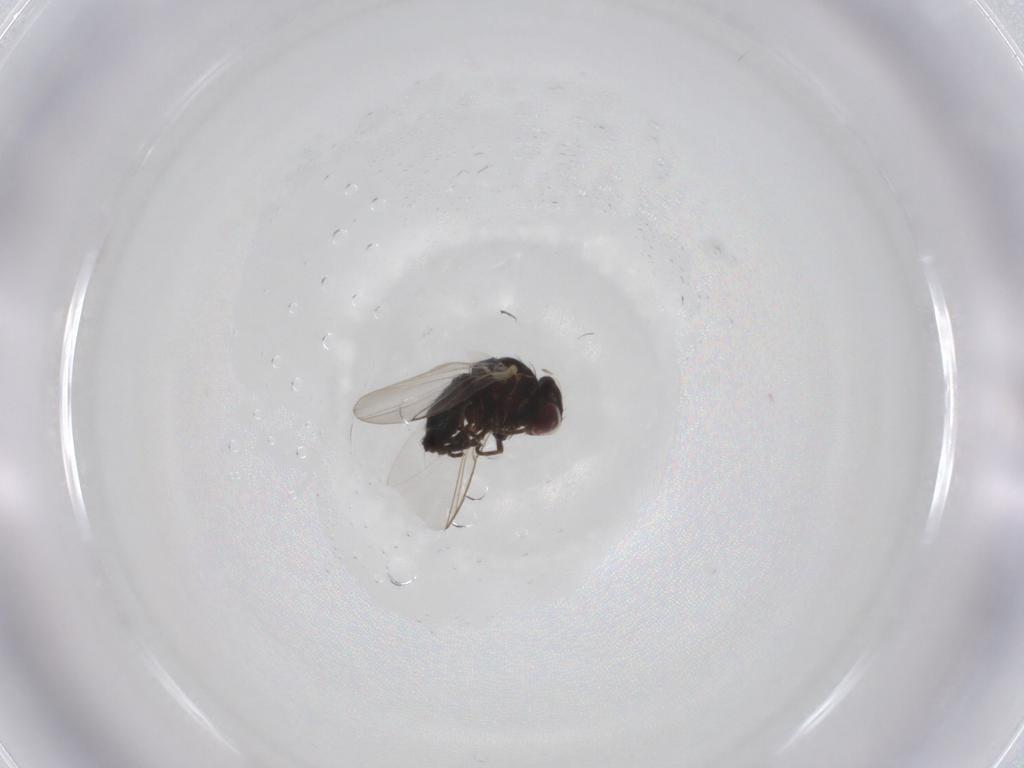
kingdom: Animalia
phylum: Arthropoda
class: Insecta
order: Diptera
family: Agromyzidae
